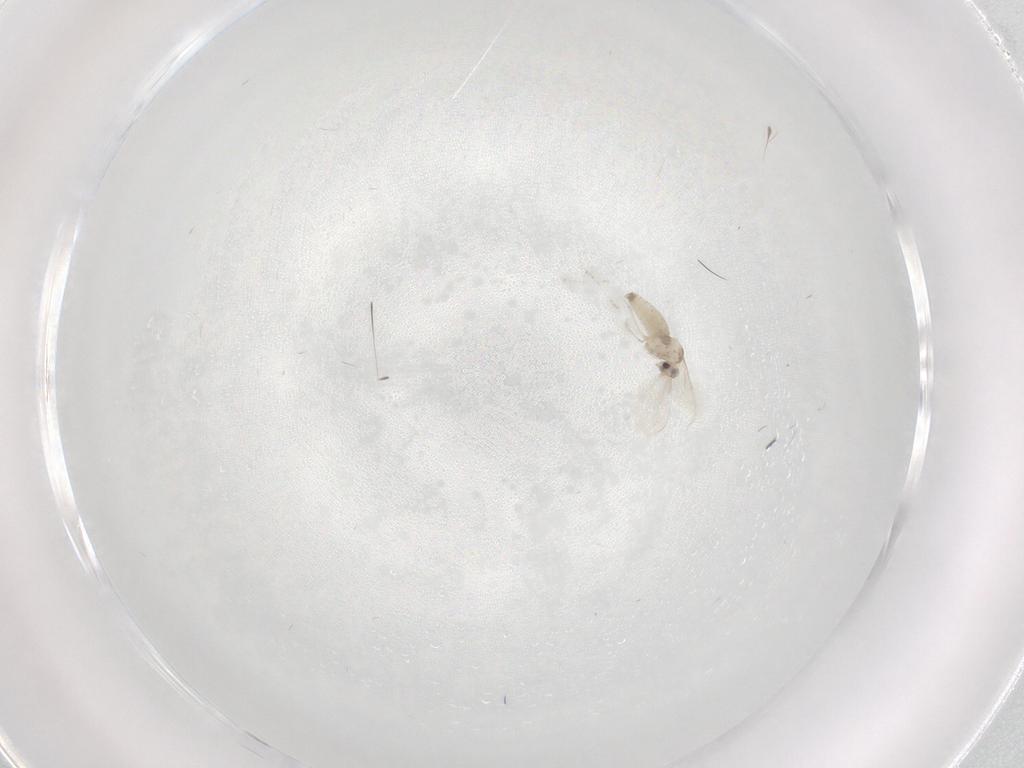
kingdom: Animalia
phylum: Arthropoda
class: Insecta
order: Diptera
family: Cecidomyiidae
